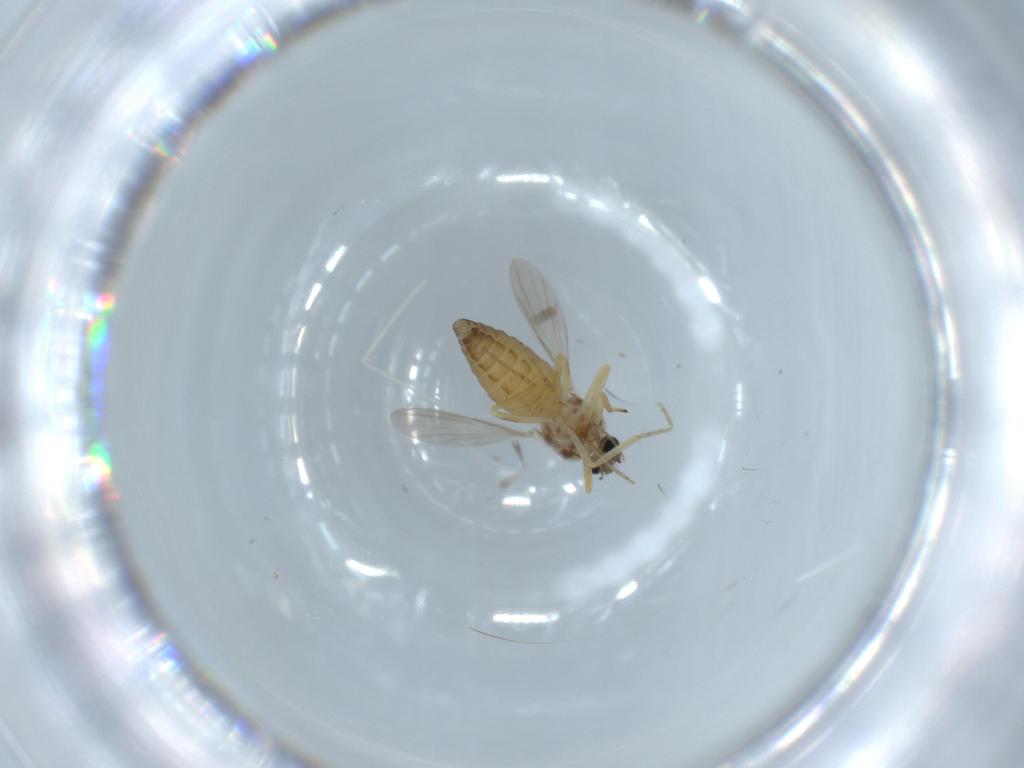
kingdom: Animalia
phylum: Arthropoda
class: Insecta
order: Diptera
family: Ceratopogonidae
